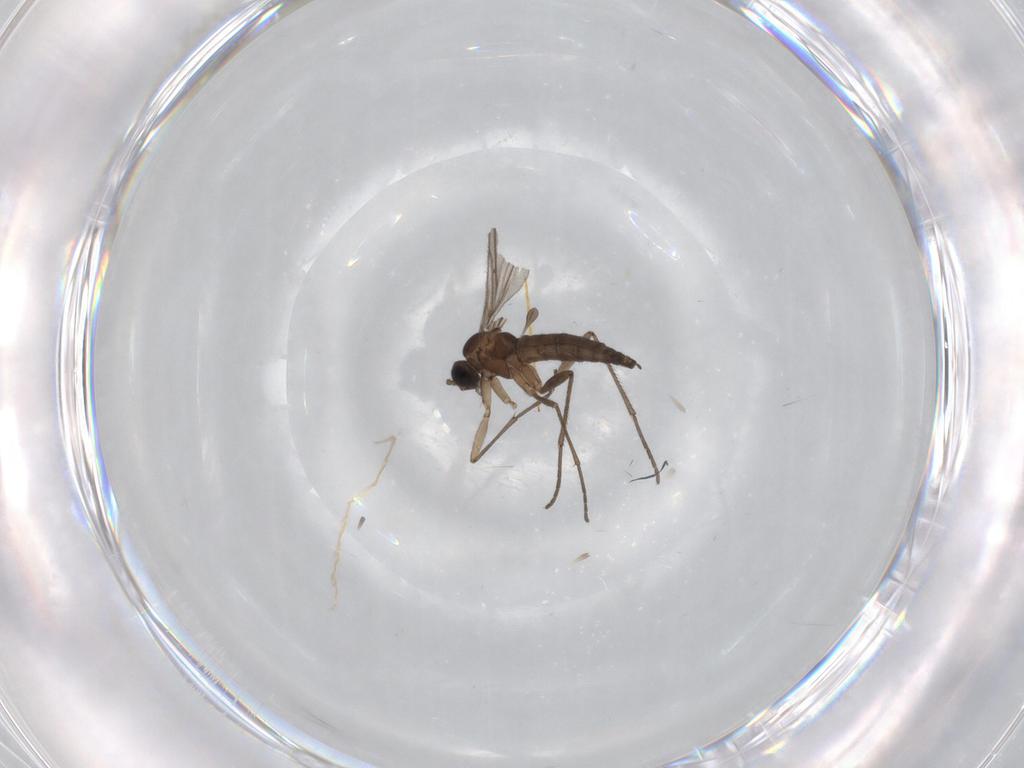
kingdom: Animalia
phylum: Arthropoda
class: Insecta
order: Diptera
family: Sciaridae
